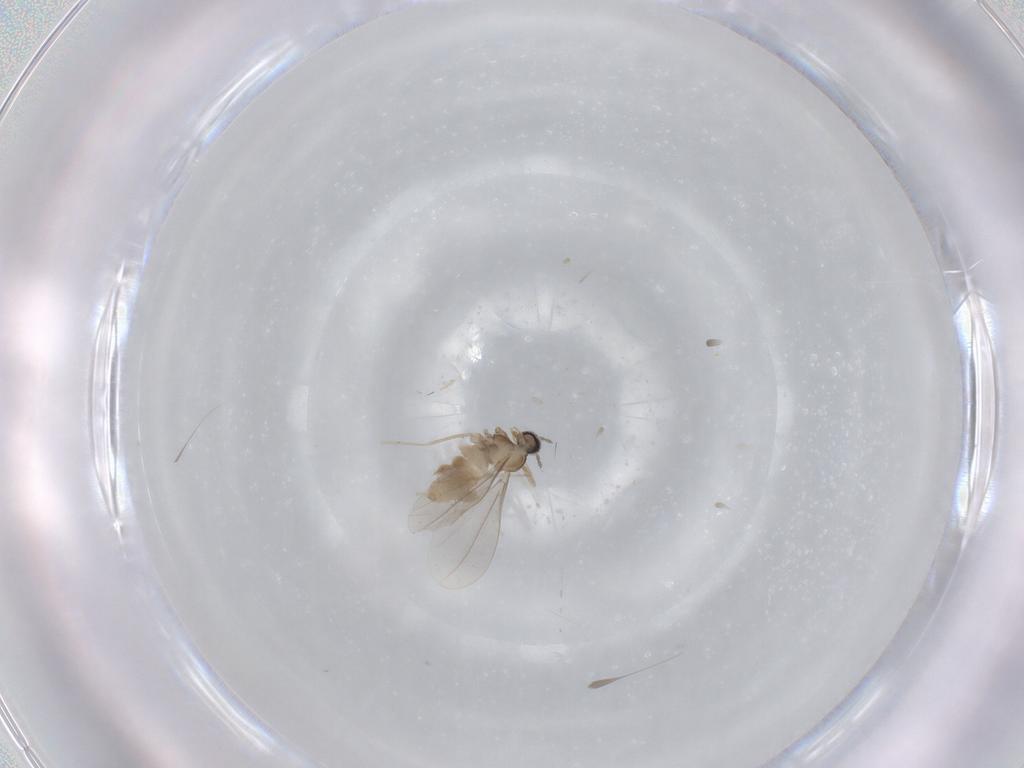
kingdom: Animalia
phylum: Arthropoda
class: Insecta
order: Diptera
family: Cecidomyiidae
